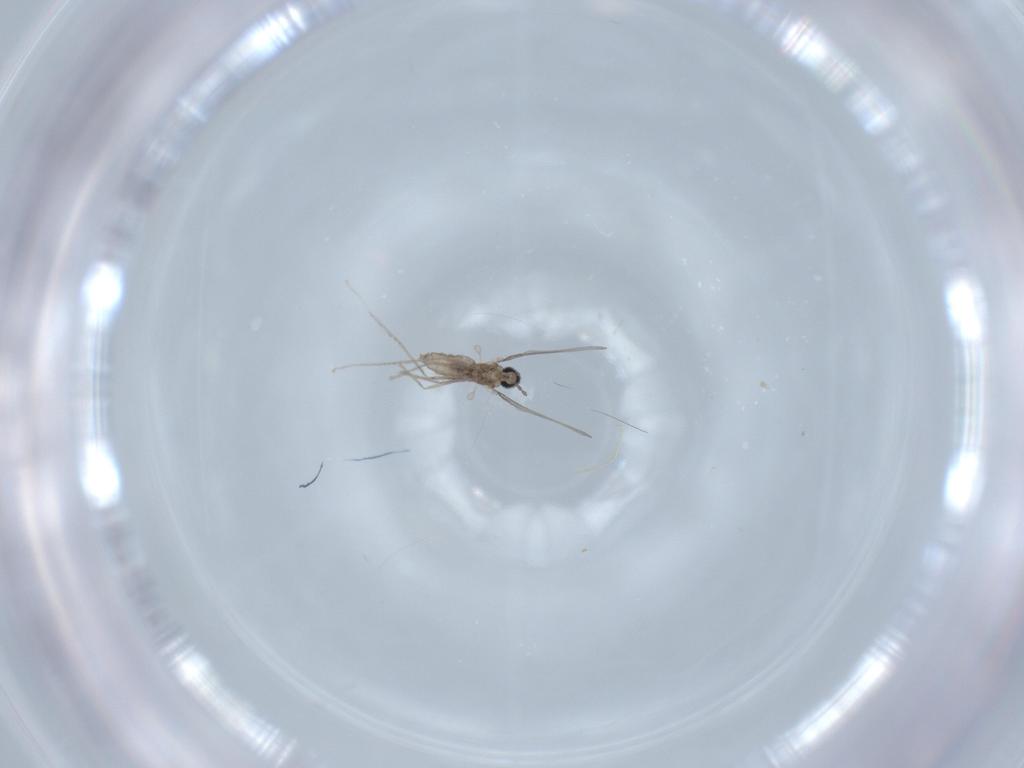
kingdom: Animalia
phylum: Arthropoda
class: Insecta
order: Diptera
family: Cecidomyiidae
